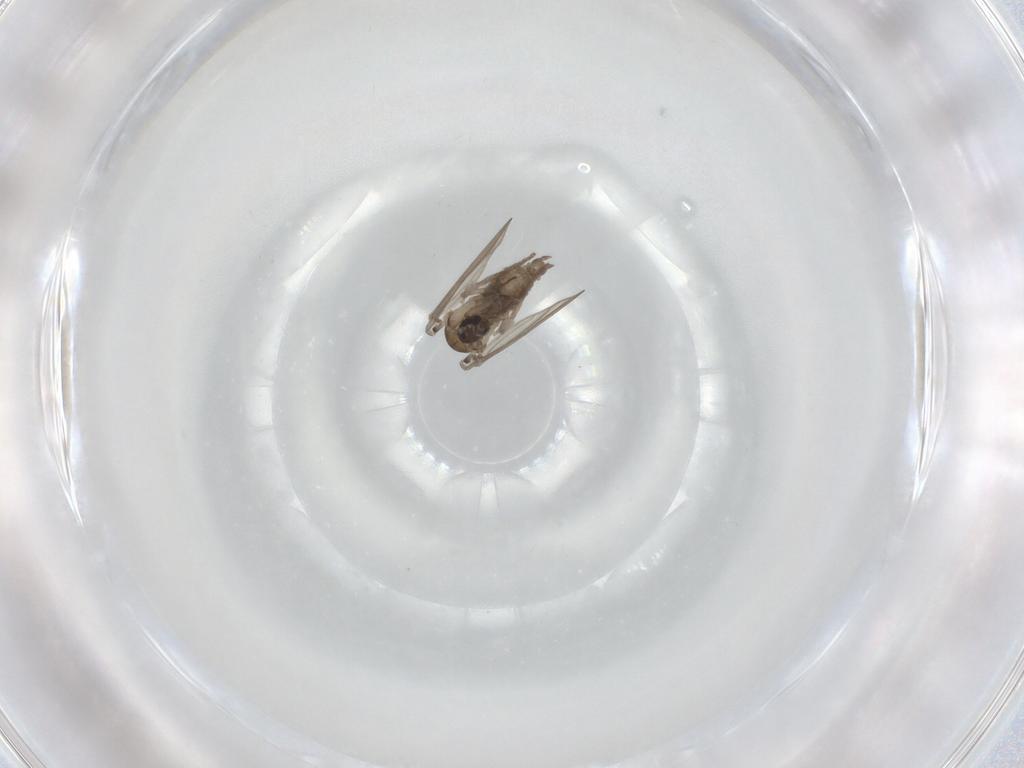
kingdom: Animalia
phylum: Arthropoda
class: Insecta
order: Diptera
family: Psychodidae
